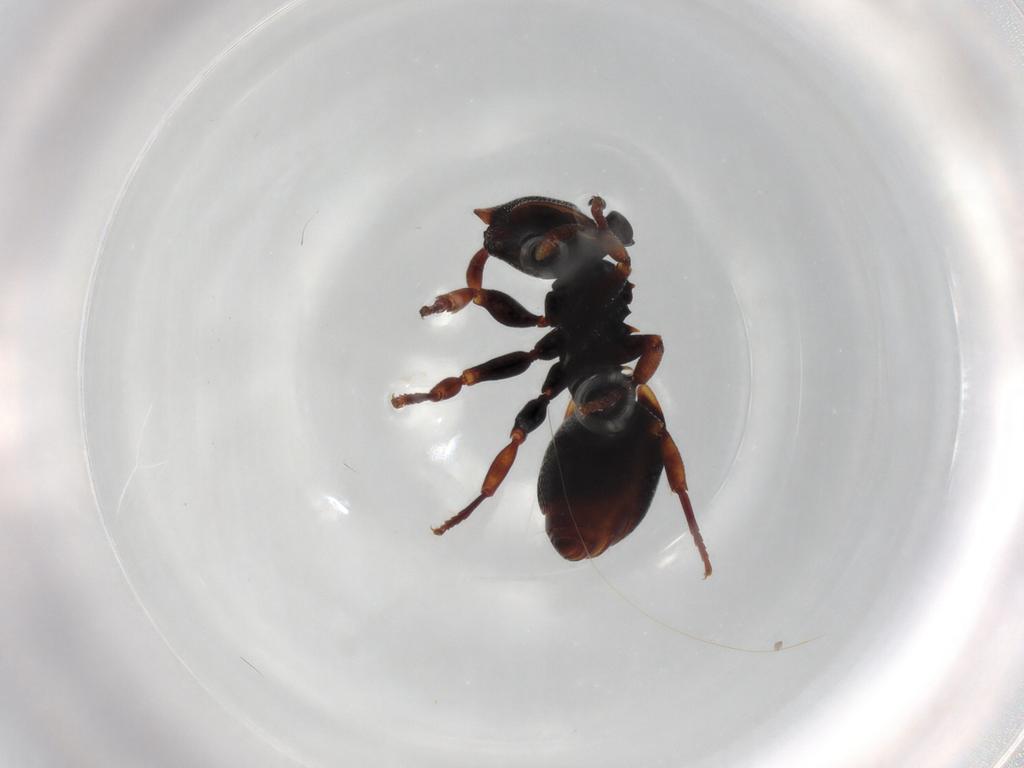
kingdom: Animalia
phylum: Arthropoda
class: Insecta
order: Hymenoptera
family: Formicidae
